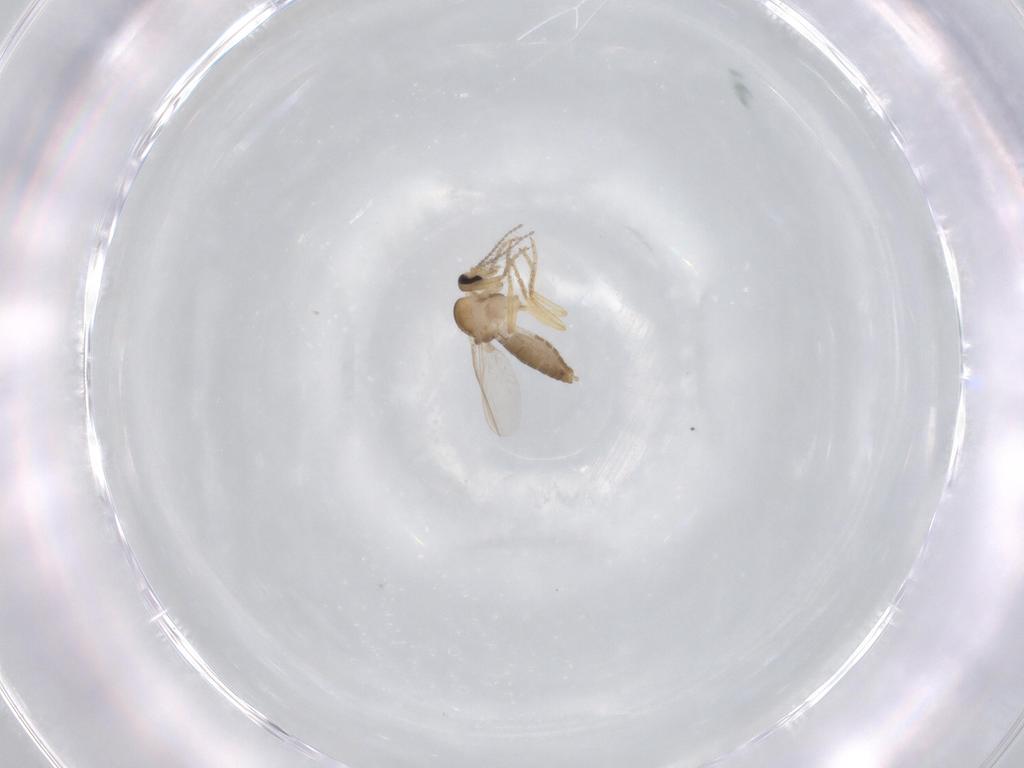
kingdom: Animalia
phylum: Arthropoda
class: Insecta
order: Diptera
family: Ceratopogonidae
